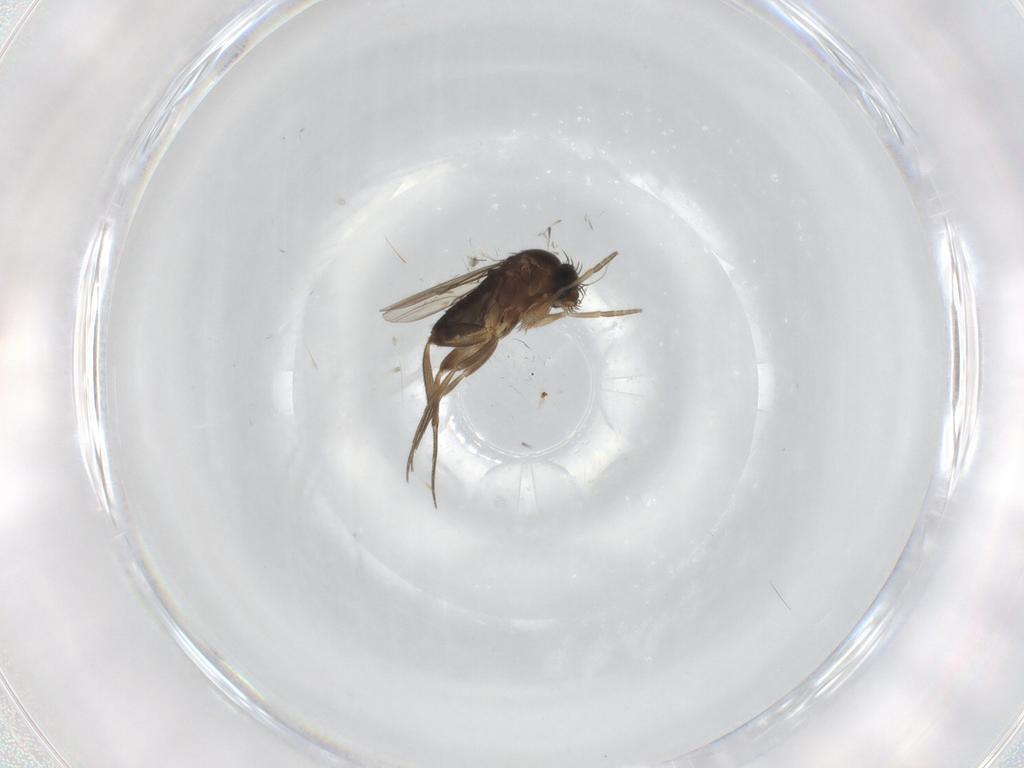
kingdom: Animalia
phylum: Arthropoda
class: Insecta
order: Diptera
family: Phoridae
